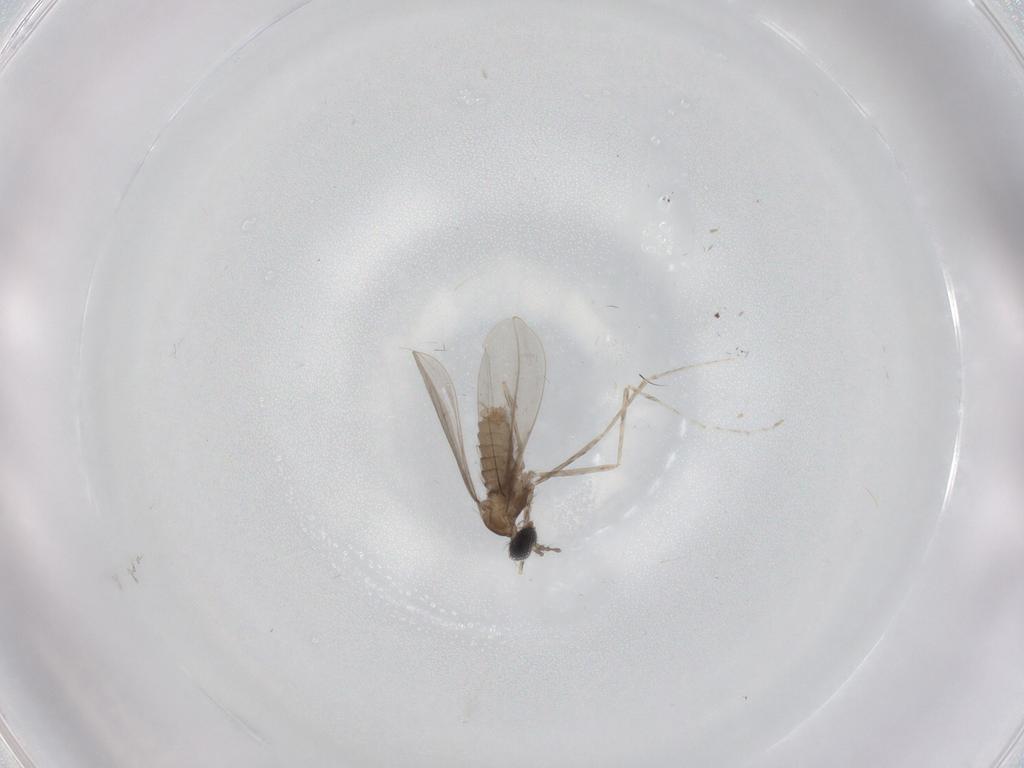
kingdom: Animalia
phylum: Arthropoda
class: Insecta
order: Diptera
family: Cecidomyiidae
